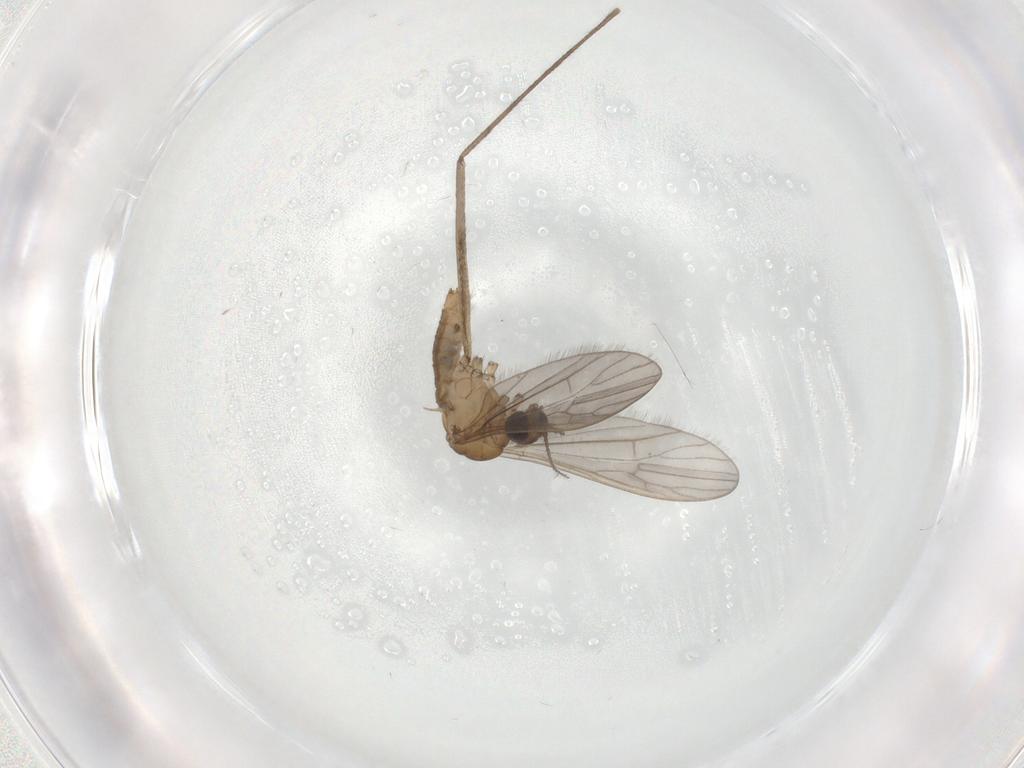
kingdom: Animalia
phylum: Arthropoda
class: Insecta
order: Diptera
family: Limoniidae
